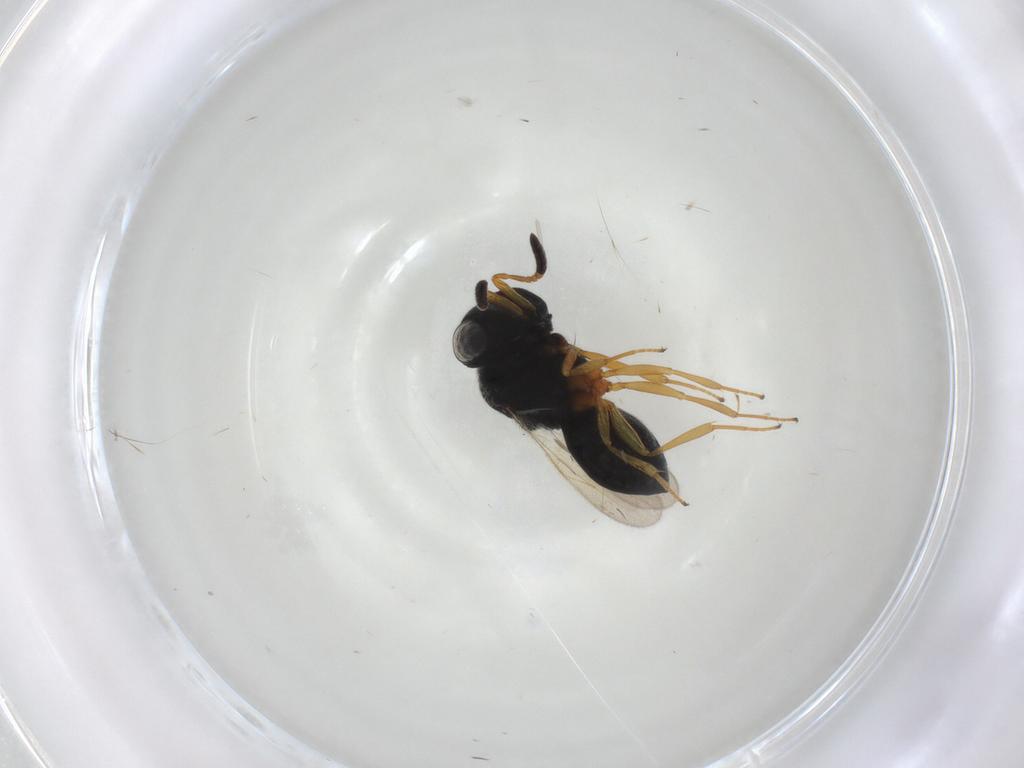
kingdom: Animalia
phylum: Arthropoda
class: Insecta
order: Hymenoptera
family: Scelionidae
